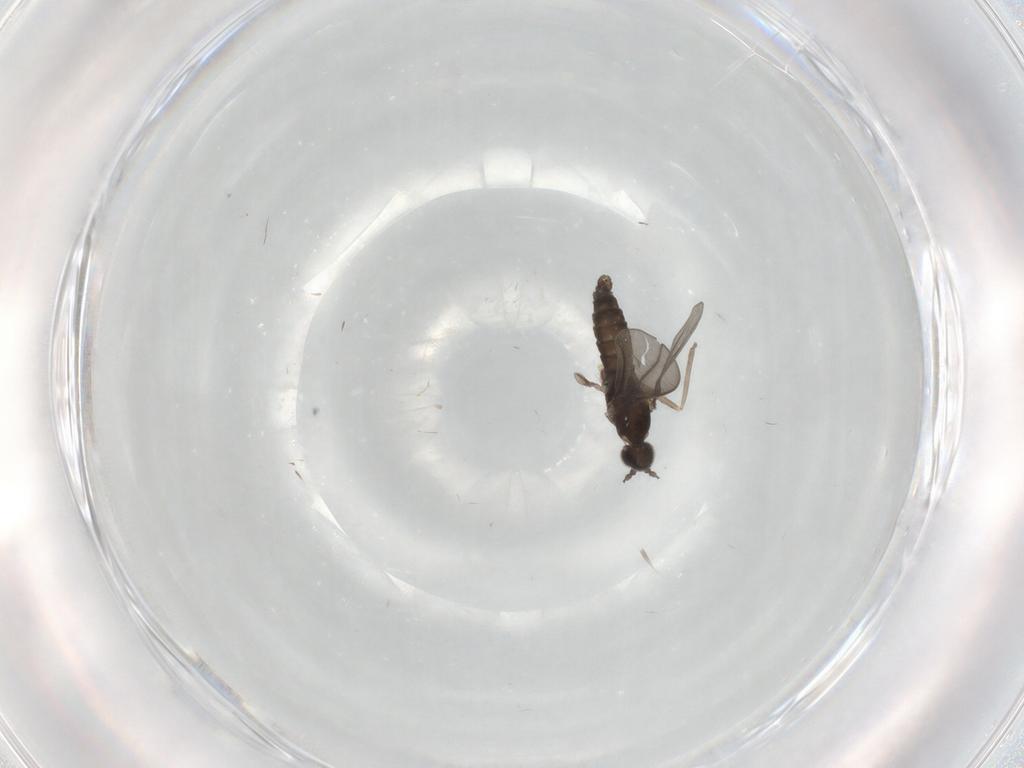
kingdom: Animalia
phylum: Arthropoda
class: Insecta
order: Diptera
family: Cecidomyiidae
